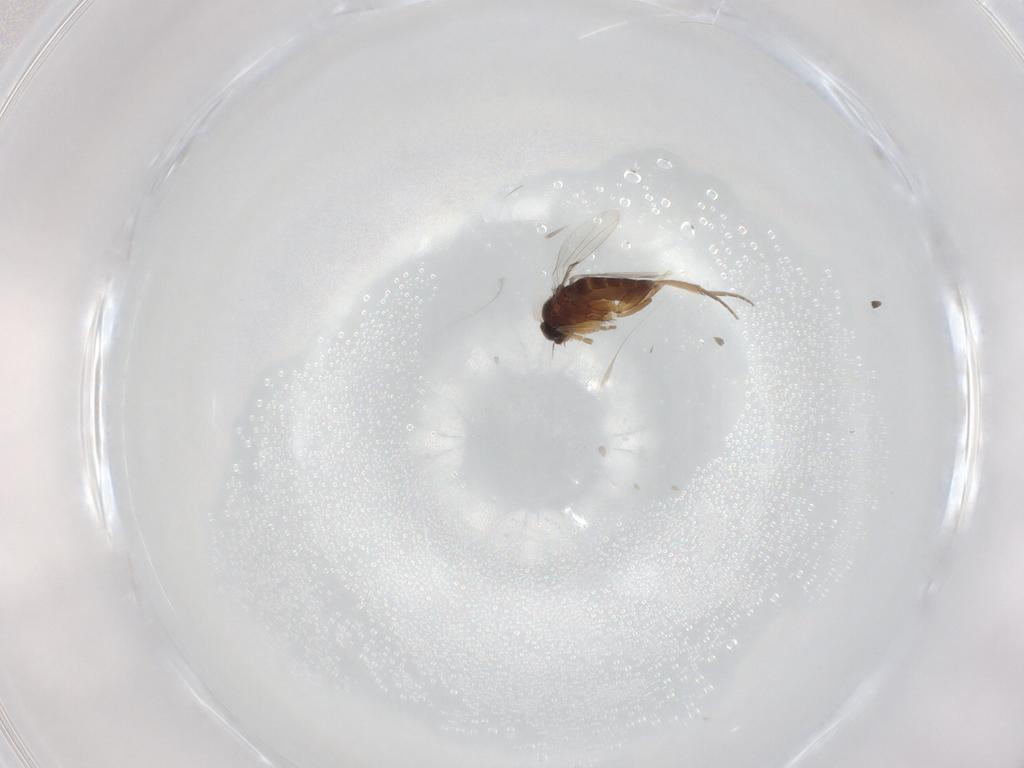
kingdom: Animalia
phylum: Arthropoda
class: Insecta
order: Diptera
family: Phoridae
